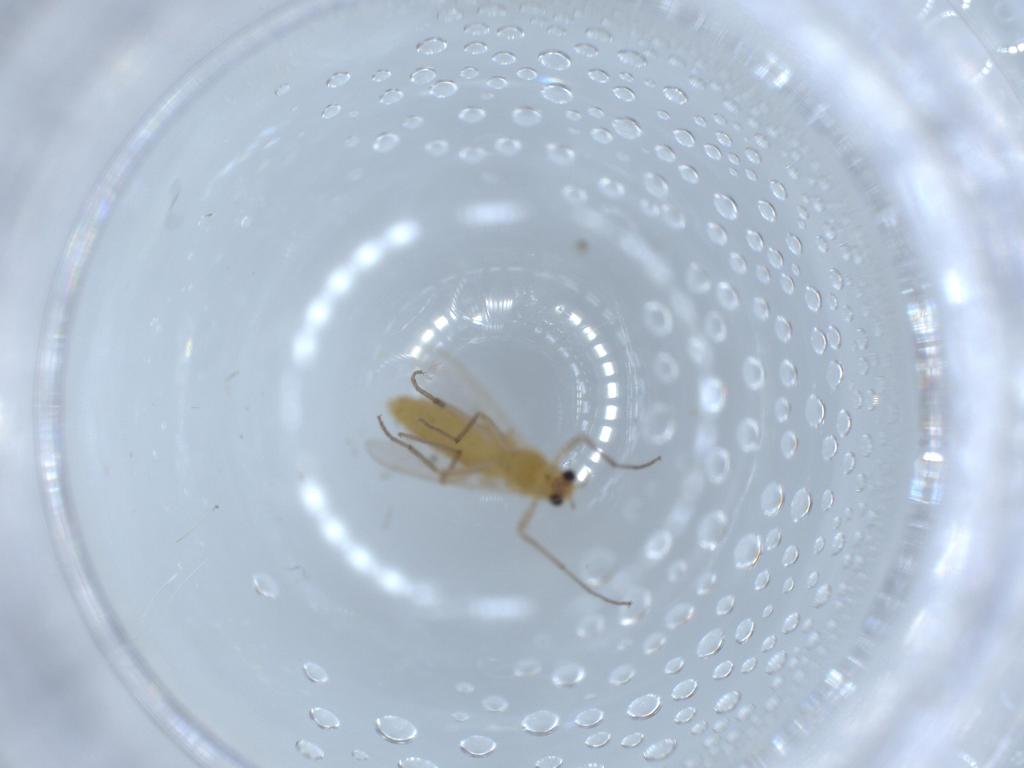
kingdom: Animalia
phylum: Arthropoda
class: Insecta
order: Diptera
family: Chironomidae
